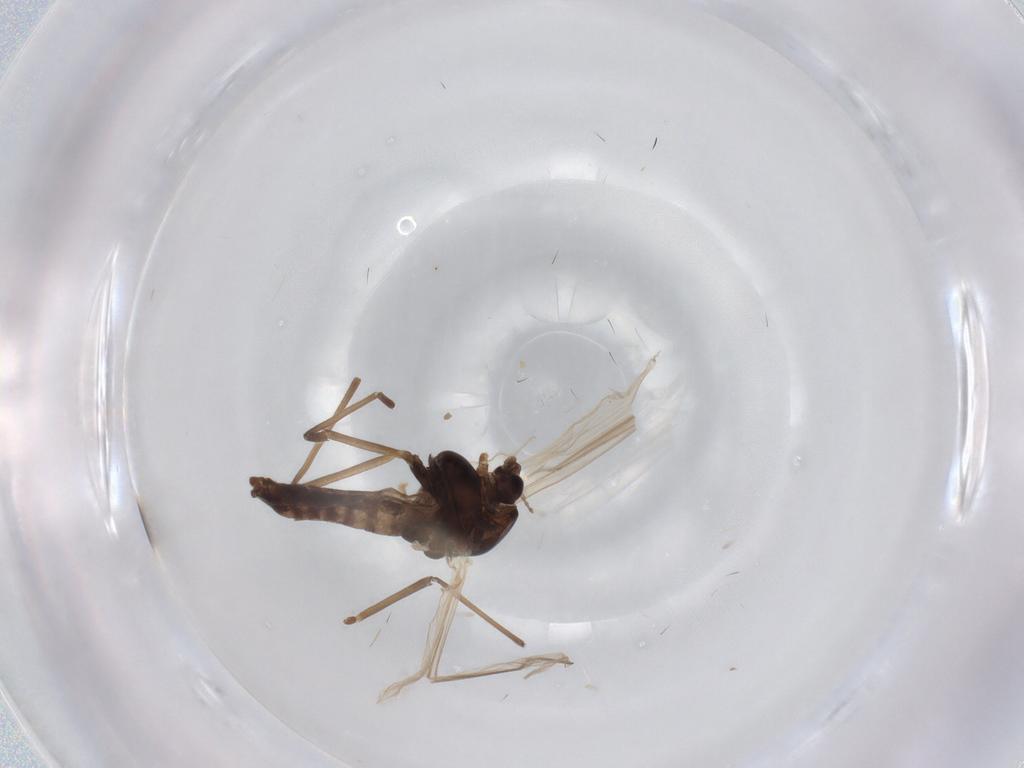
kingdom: Animalia
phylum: Arthropoda
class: Insecta
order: Diptera
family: Chironomidae
